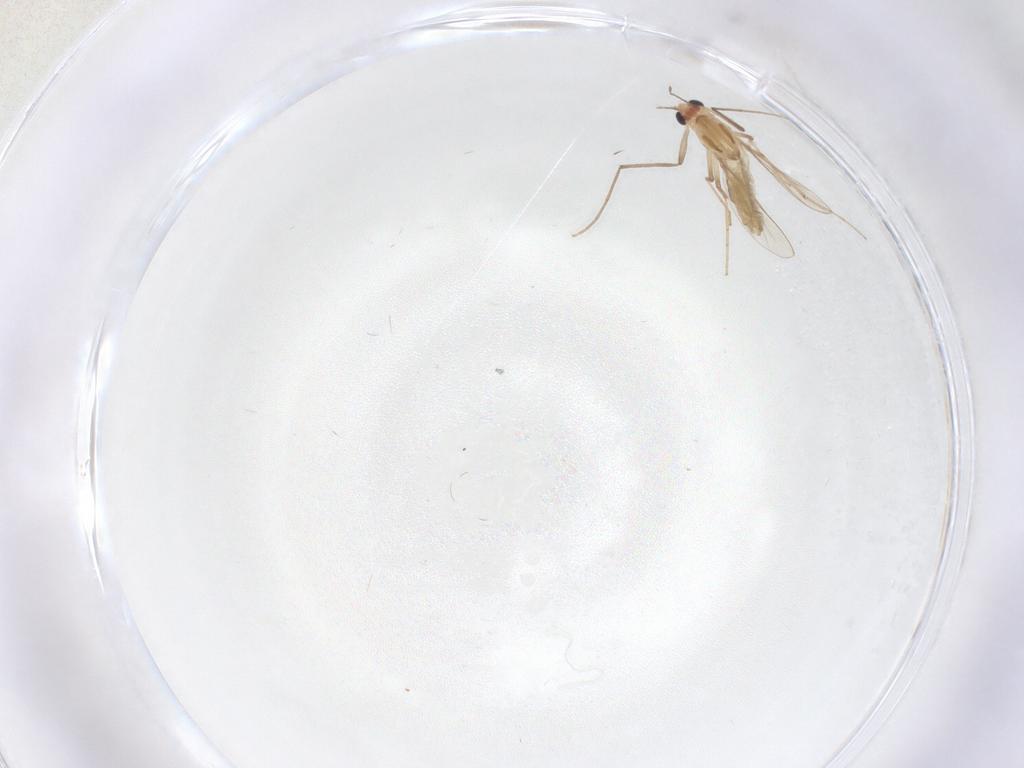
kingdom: Animalia
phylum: Arthropoda
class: Insecta
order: Diptera
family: Chironomidae
